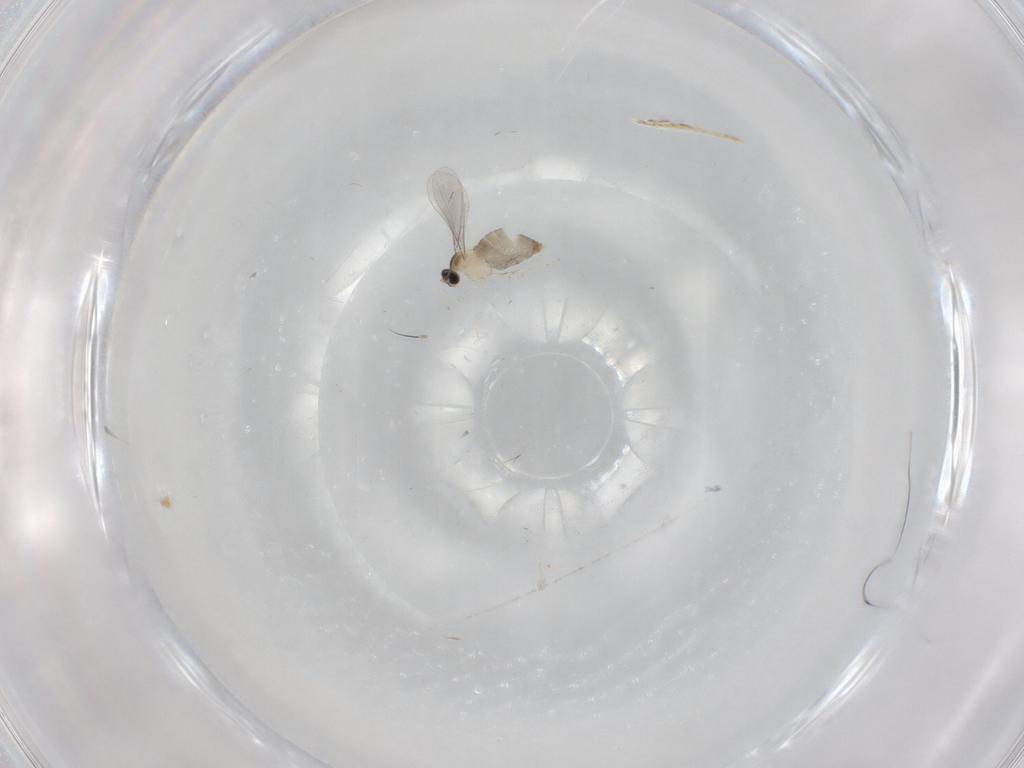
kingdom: Animalia
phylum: Arthropoda
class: Insecta
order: Diptera
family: Cecidomyiidae
